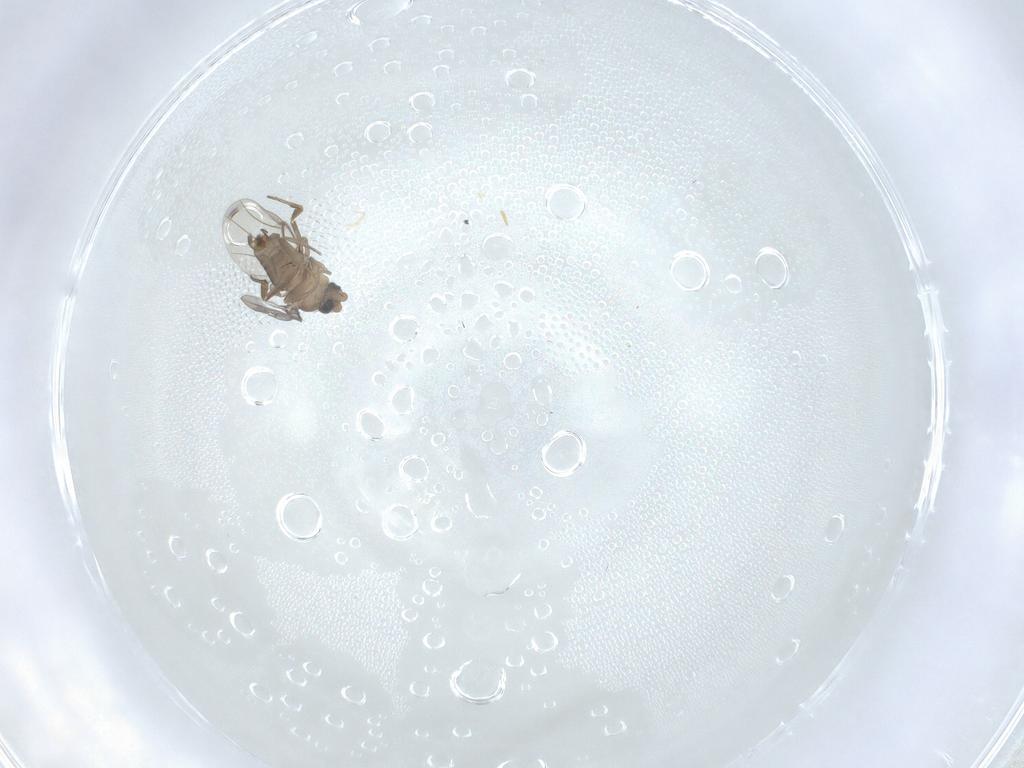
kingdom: Animalia
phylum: Arthropoda
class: Insecta
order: Diptera
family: Phoridae
